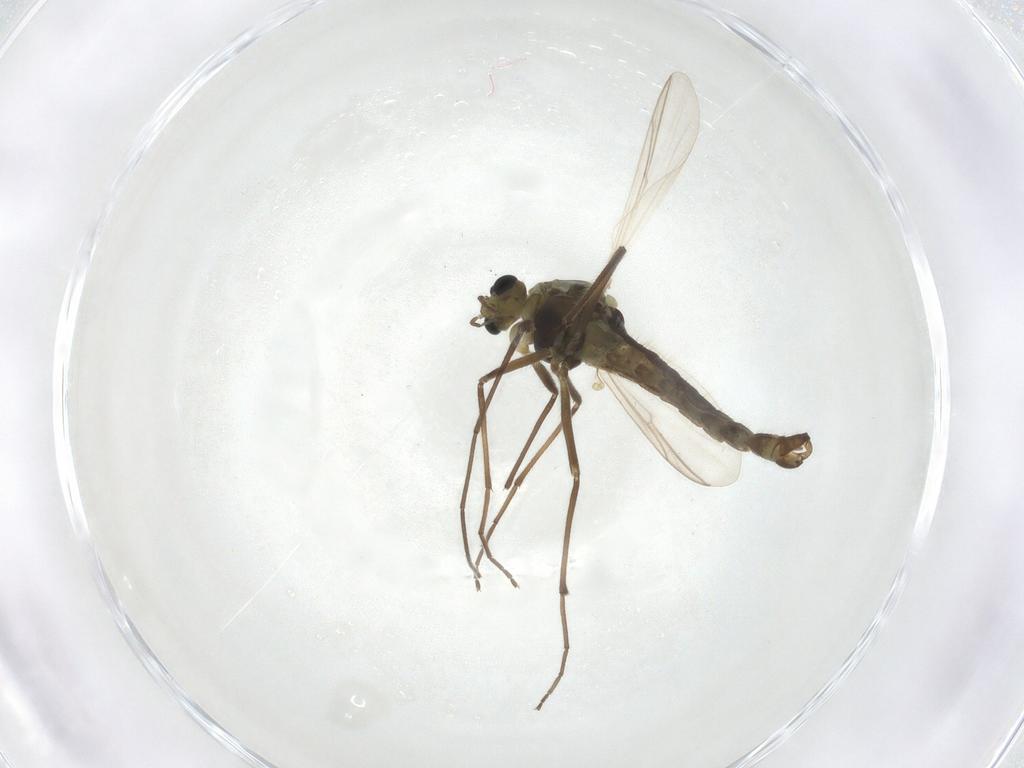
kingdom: Animalia
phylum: Arthropoda
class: Insecta
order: Diptera
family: Chironomidae
